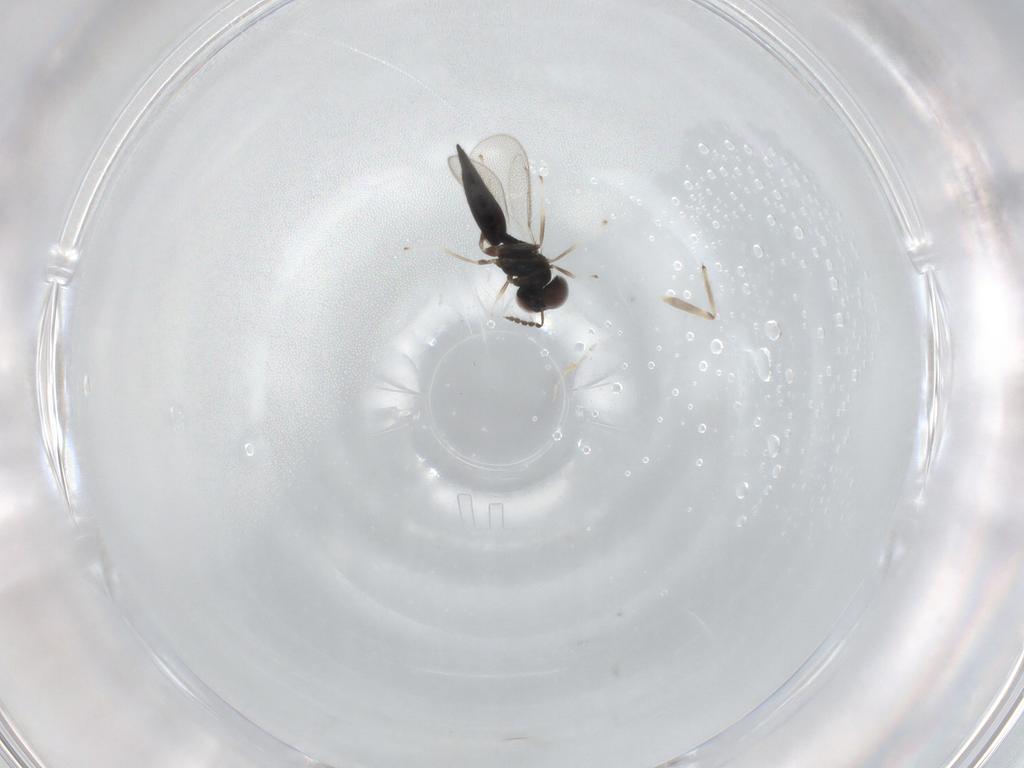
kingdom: Animalia
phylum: Arthropoda
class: Insecta
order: Hymenoptera
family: Eulophidae
